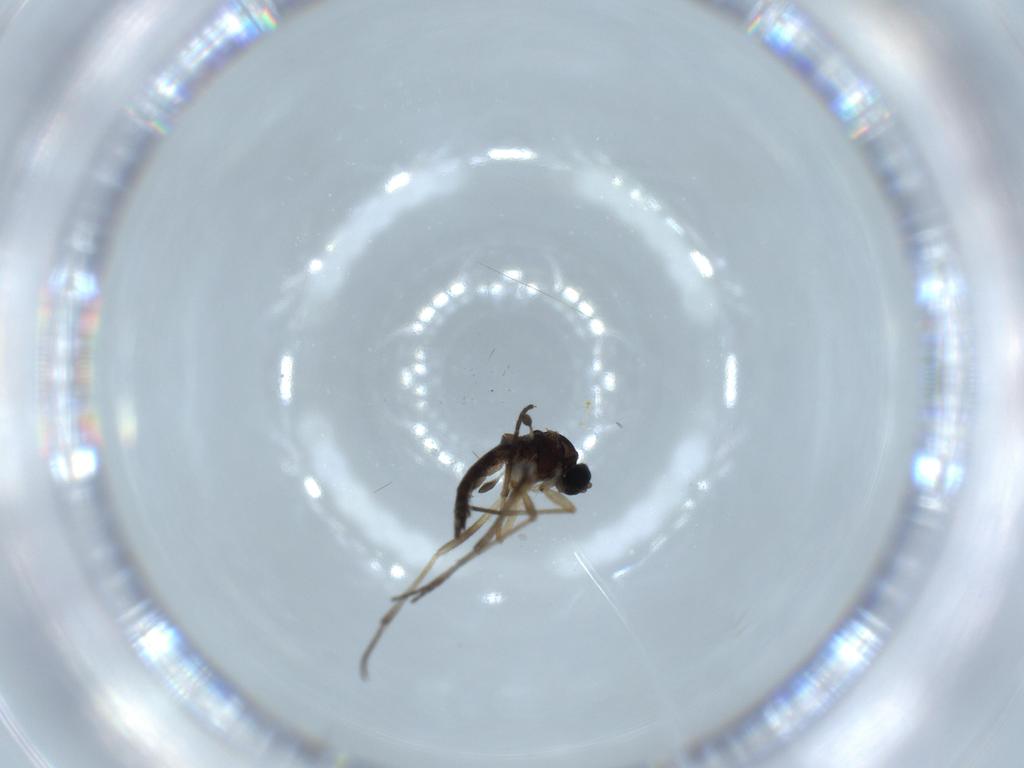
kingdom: Animalia
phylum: Arthropoda
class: Insecta
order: Diptera
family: Sciaridae
